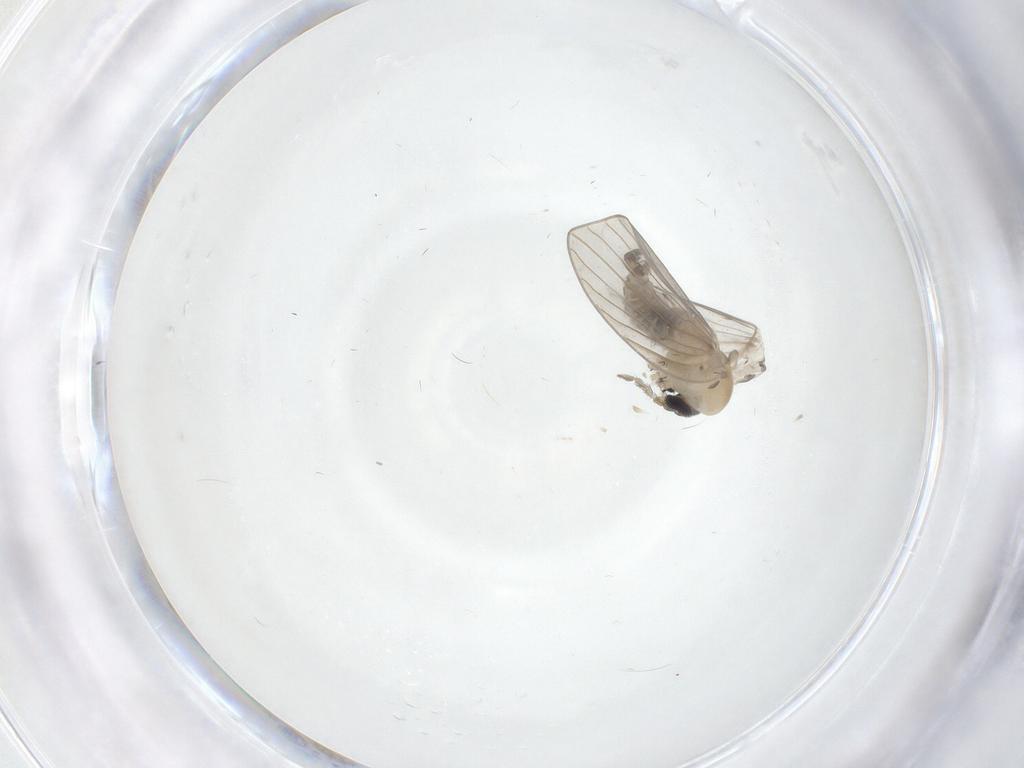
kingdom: Animalia
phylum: Arthropoda
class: Insecta
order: Diptera
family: Psychodidae
